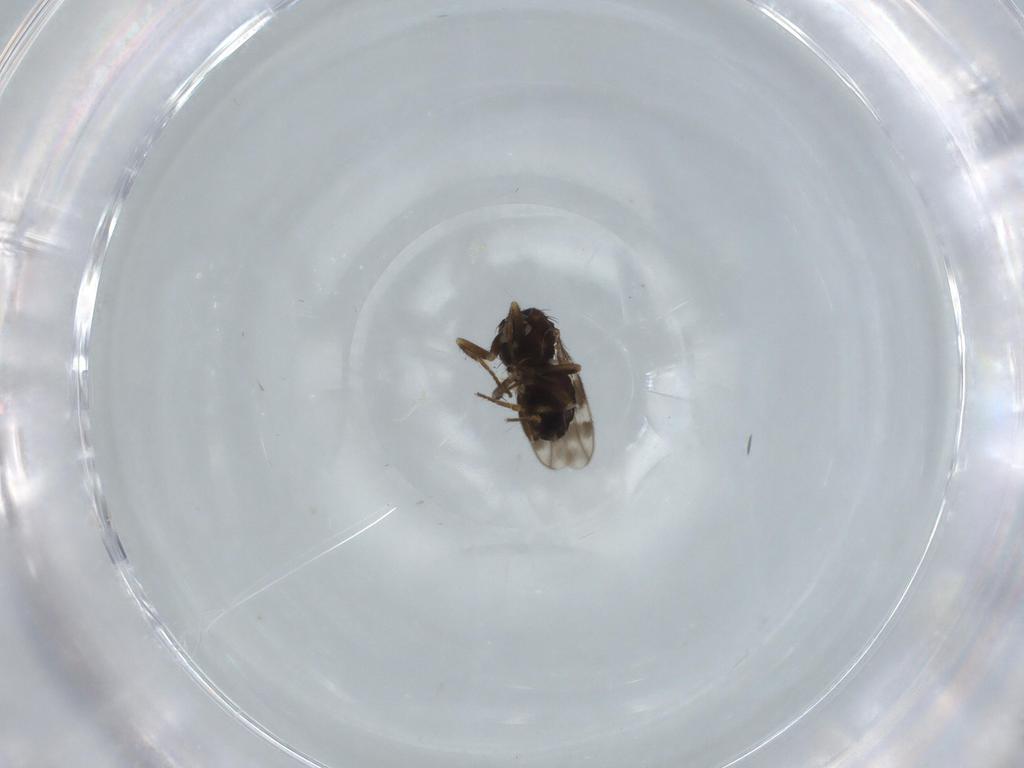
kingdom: Animalia
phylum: Arthropoda
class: Insecta
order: Diptera
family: Sphaeroceridae
